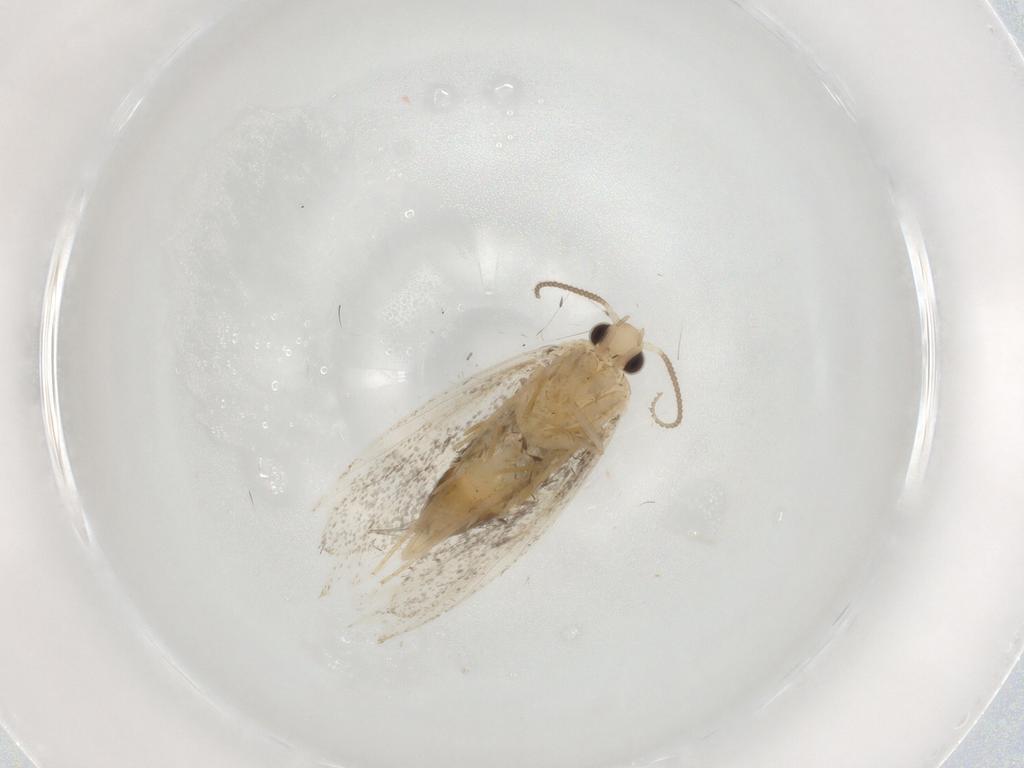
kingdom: Animalia
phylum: Arthropoda
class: Insecta
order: Lepidoptera
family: Psychidae
